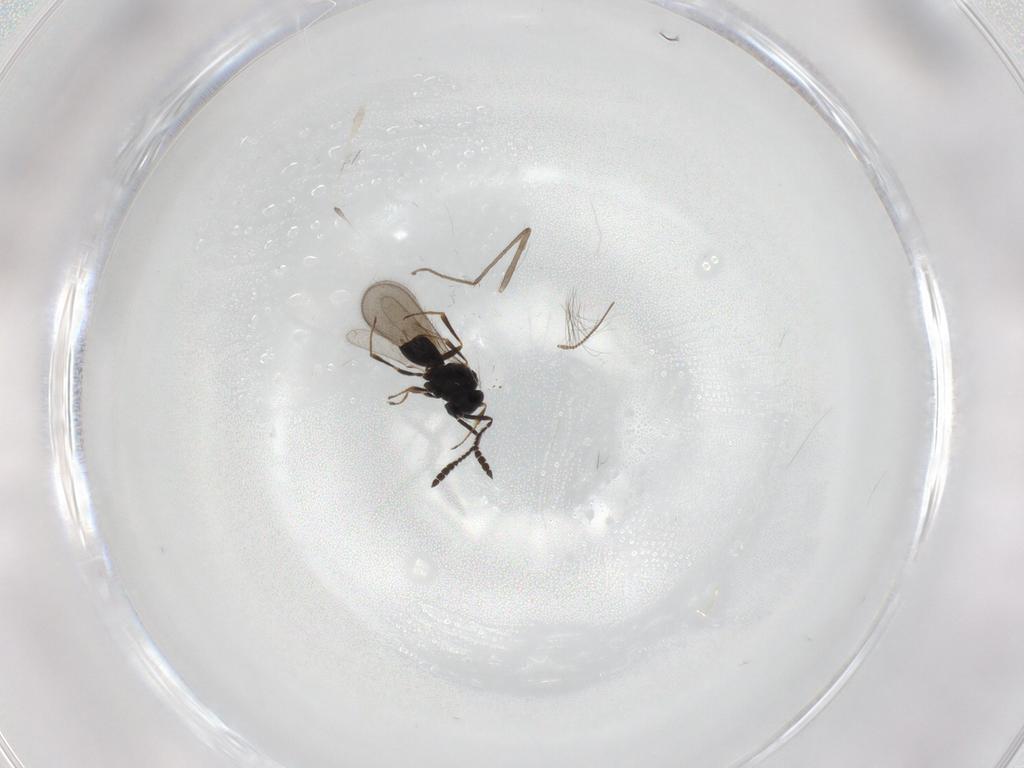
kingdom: Animalia
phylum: Arthropoda
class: Insecta
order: Hymenoptera
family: Scelionidae
